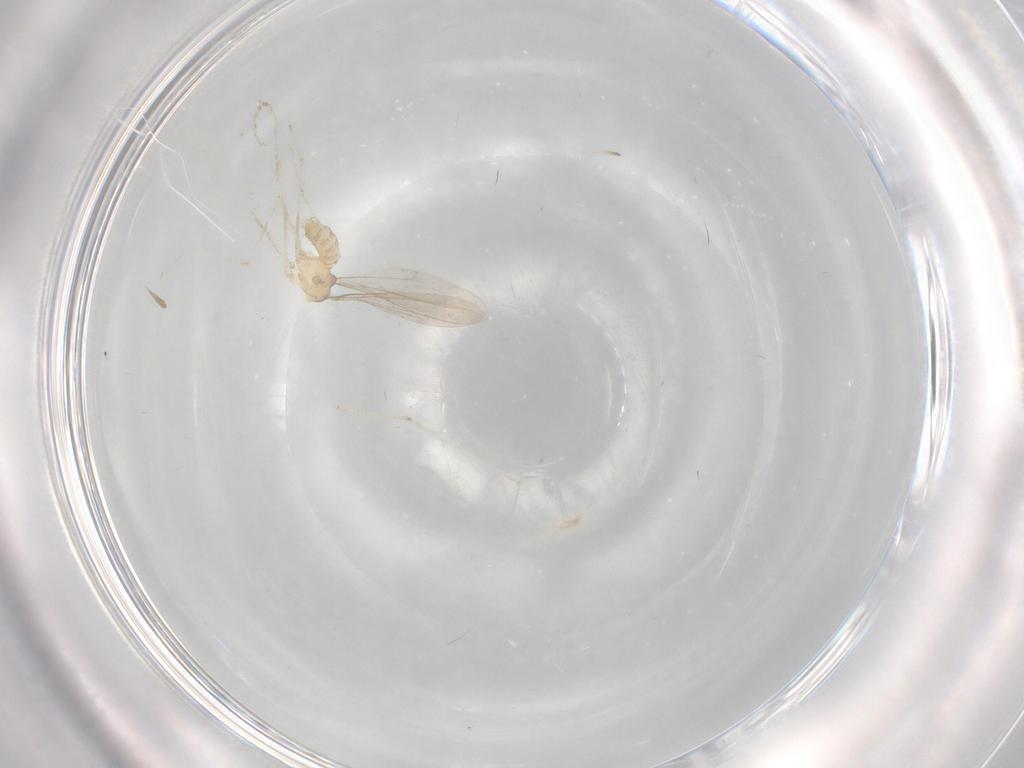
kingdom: Animalia
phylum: Arthropoda
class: Insecta
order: Diptera
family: Cecidomyiidae
